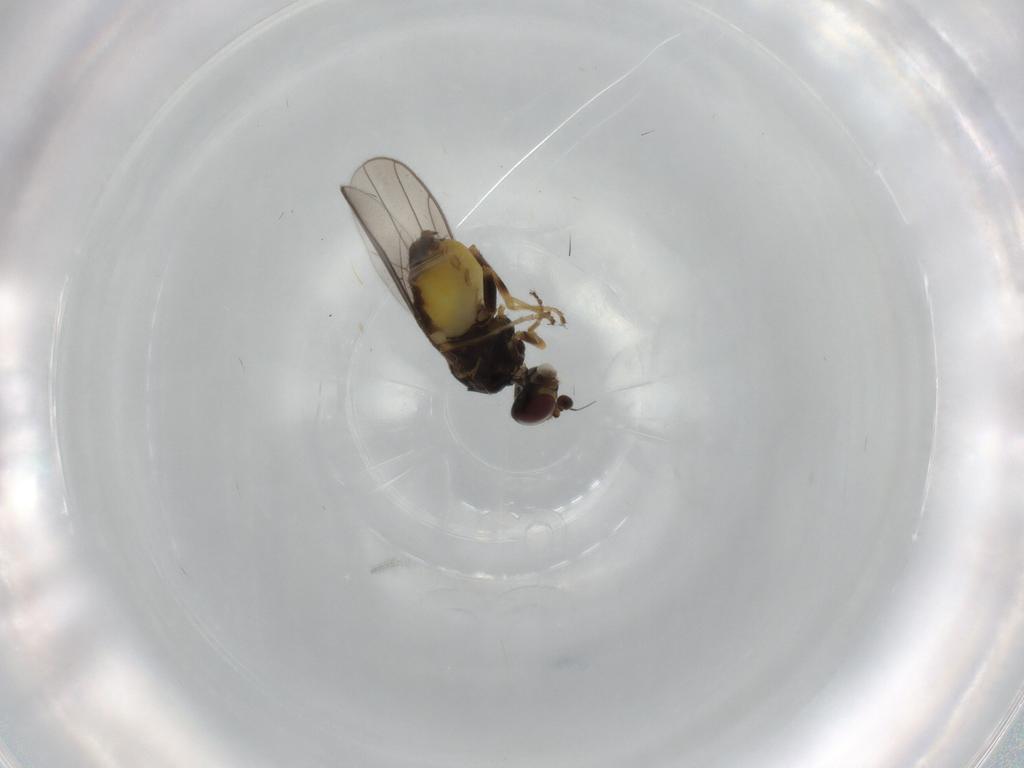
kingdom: Animalia
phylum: Arthropoda
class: Insecta
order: Diptera
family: Chloropidae
